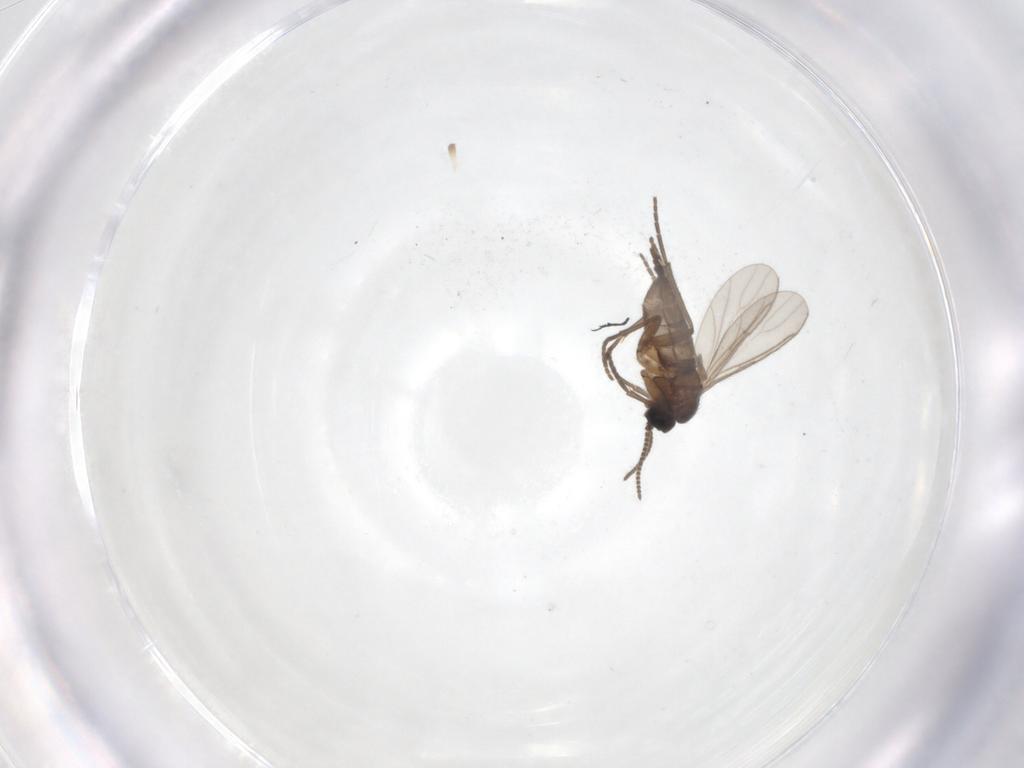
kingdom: Animalia
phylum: Arthropoda
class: Insecta
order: Diptera
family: Sciaridae
